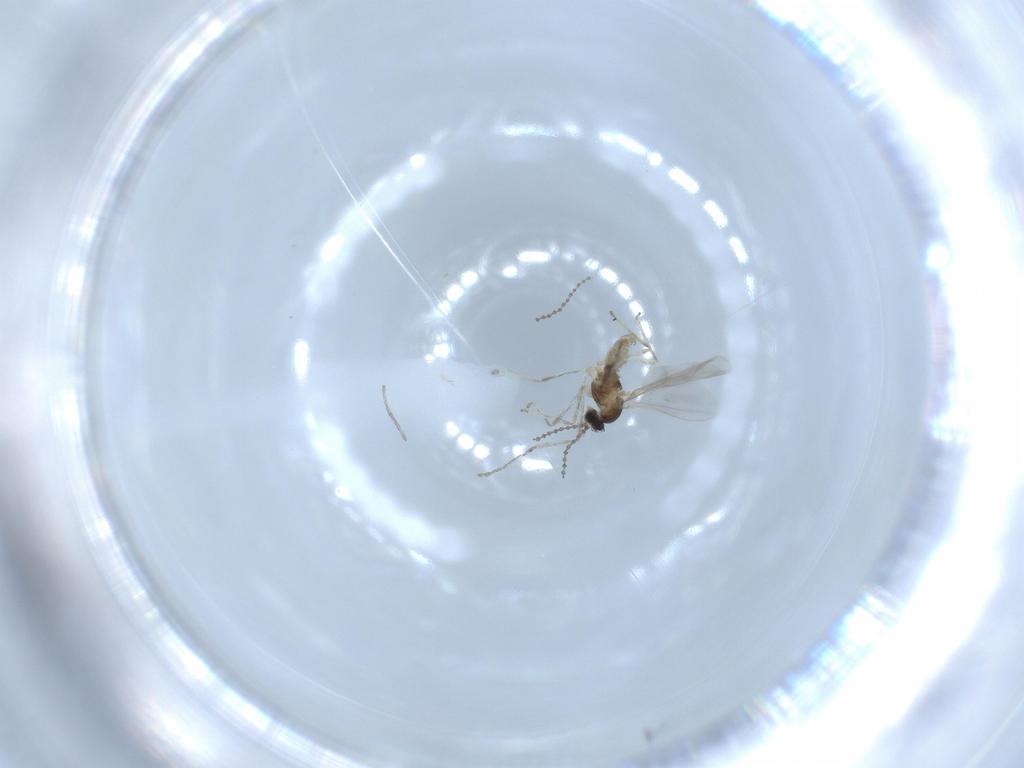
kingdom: Animalia
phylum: Arthropoda
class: Insecta
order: Diptera
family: Cecidomyiidae
